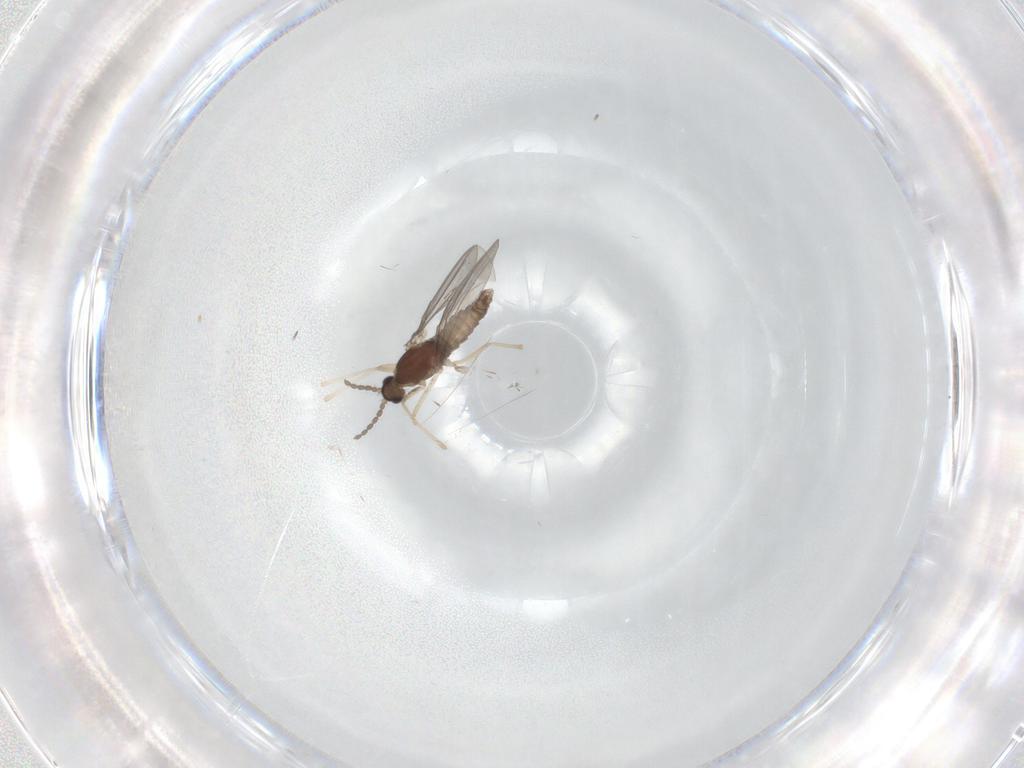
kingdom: Animalia
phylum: Arthropoda
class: Insecta
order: Diptera
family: Cecidomyiidae
